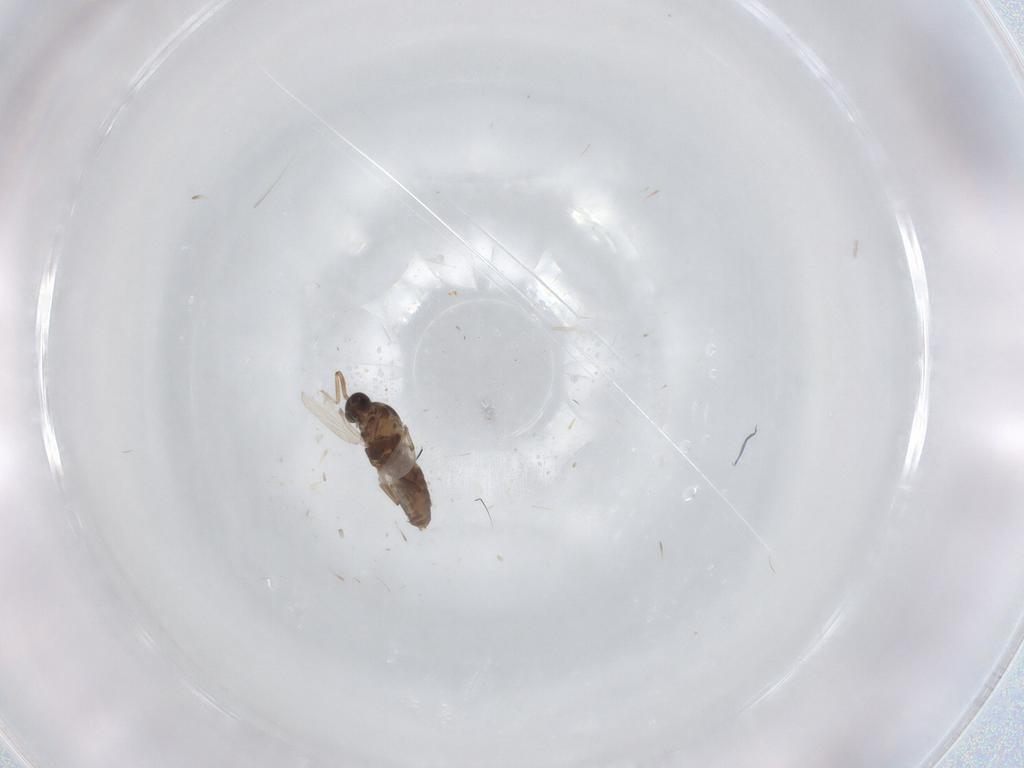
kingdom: Animalia
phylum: Arthropoda
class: Insecta
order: Diptera
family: Ceratopogonidae
